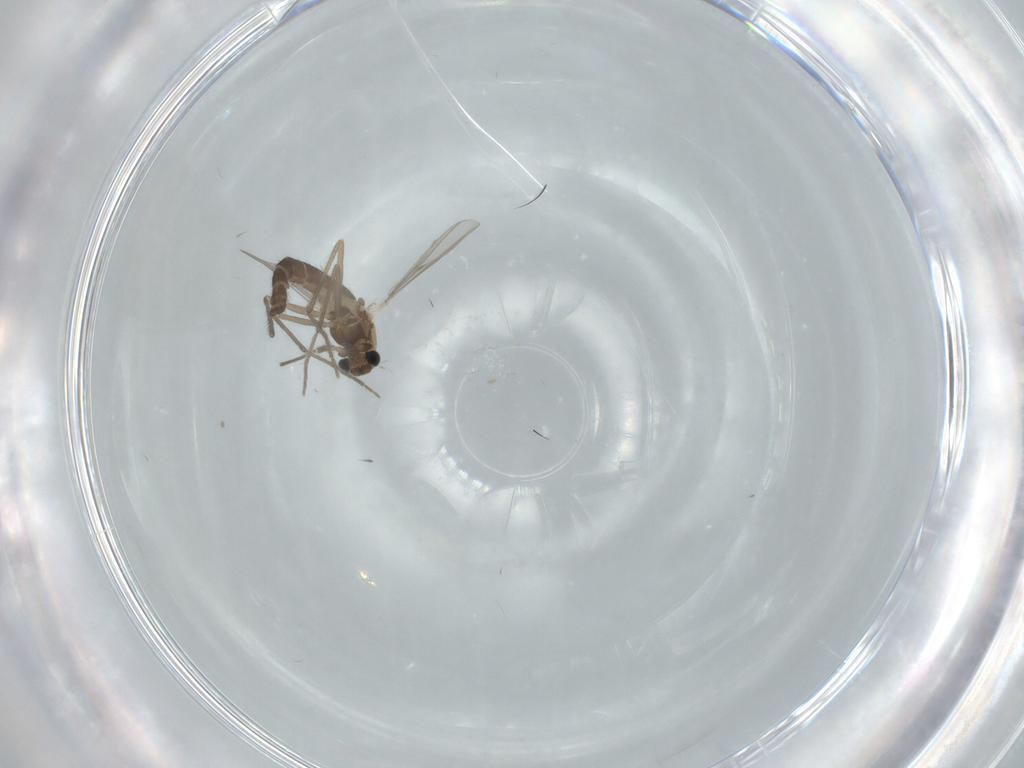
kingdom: Animalia
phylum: Arthropoda
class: Insecta
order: Diptera
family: Chironomidae
